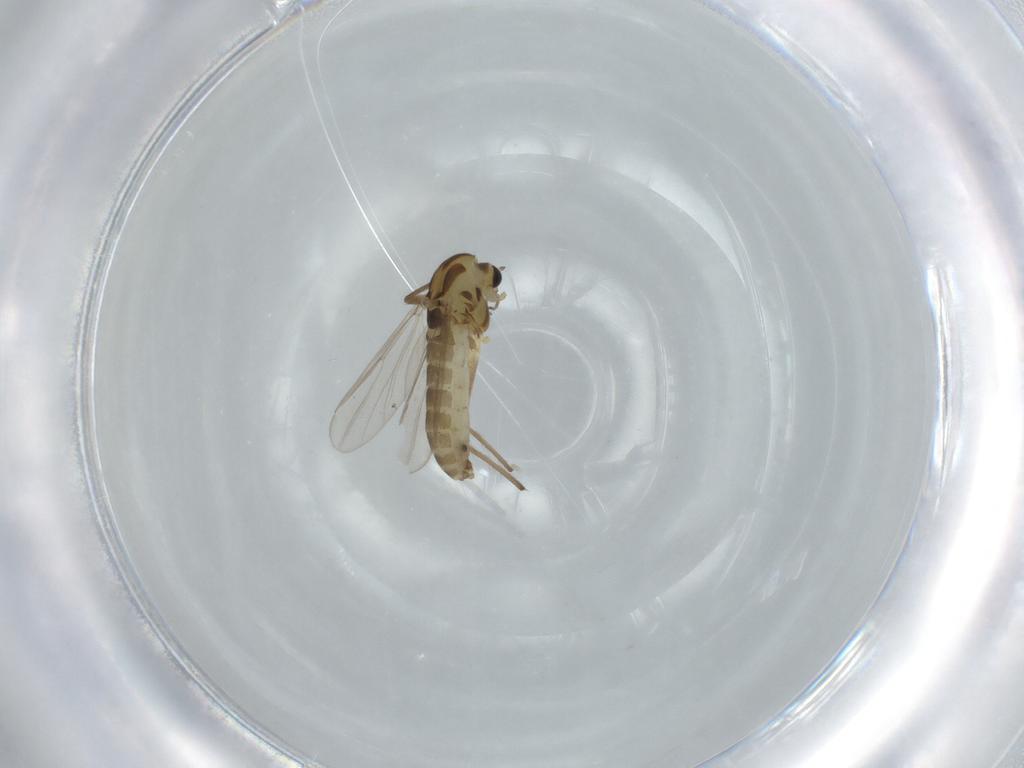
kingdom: Animalia
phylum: Arthropoda
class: Insecta
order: Diptera
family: Chironomidae
